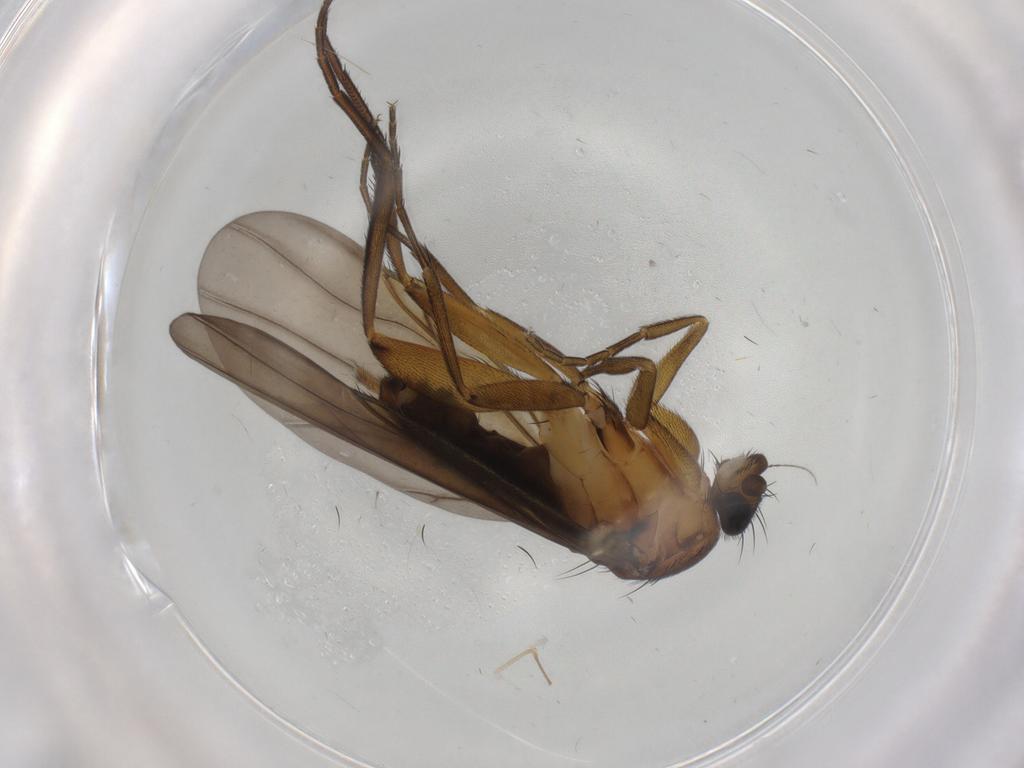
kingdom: Animalia
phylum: Arthropoda
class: Insecta
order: Diptera
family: Phoridae
